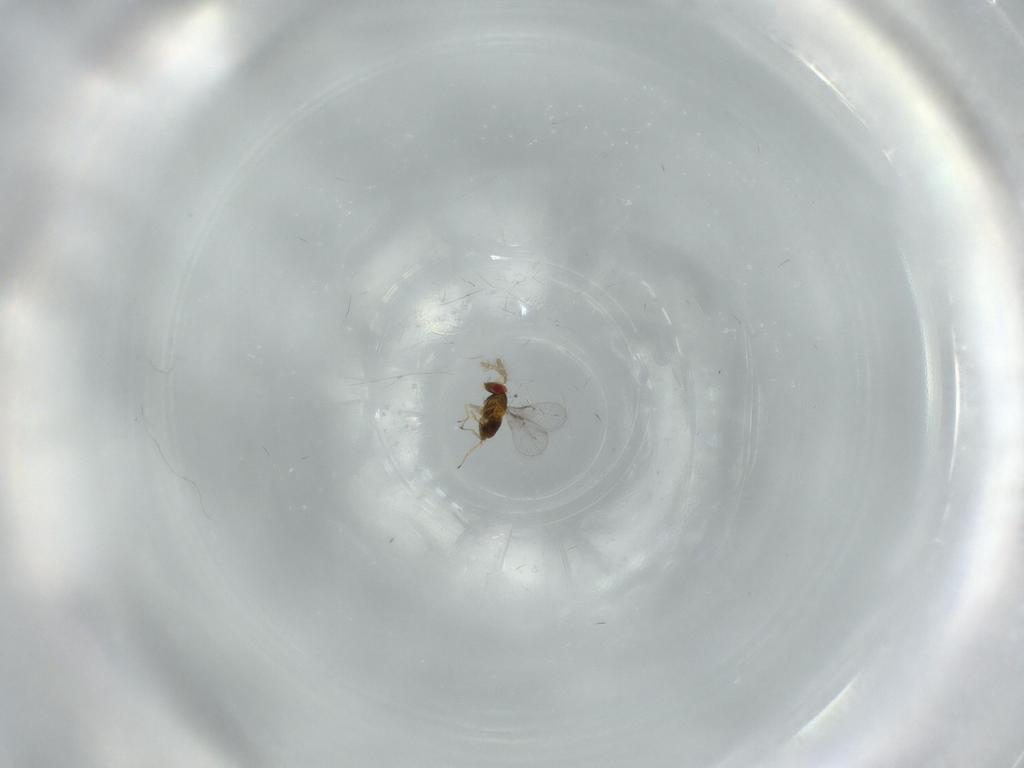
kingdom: Animalia
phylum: Arthropoda
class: Insecta
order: Hymenoptera
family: Trichogrammatidae
